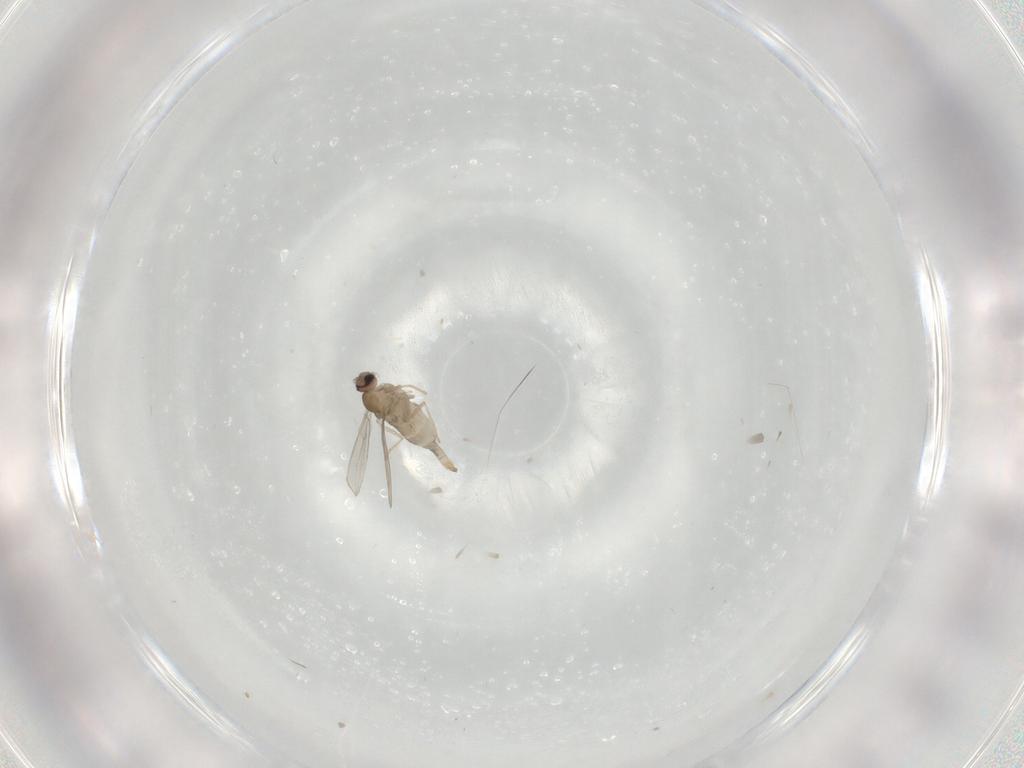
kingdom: Animalia
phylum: Arthropoda
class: Insecta
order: Diptera
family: Cecidomyiidae
